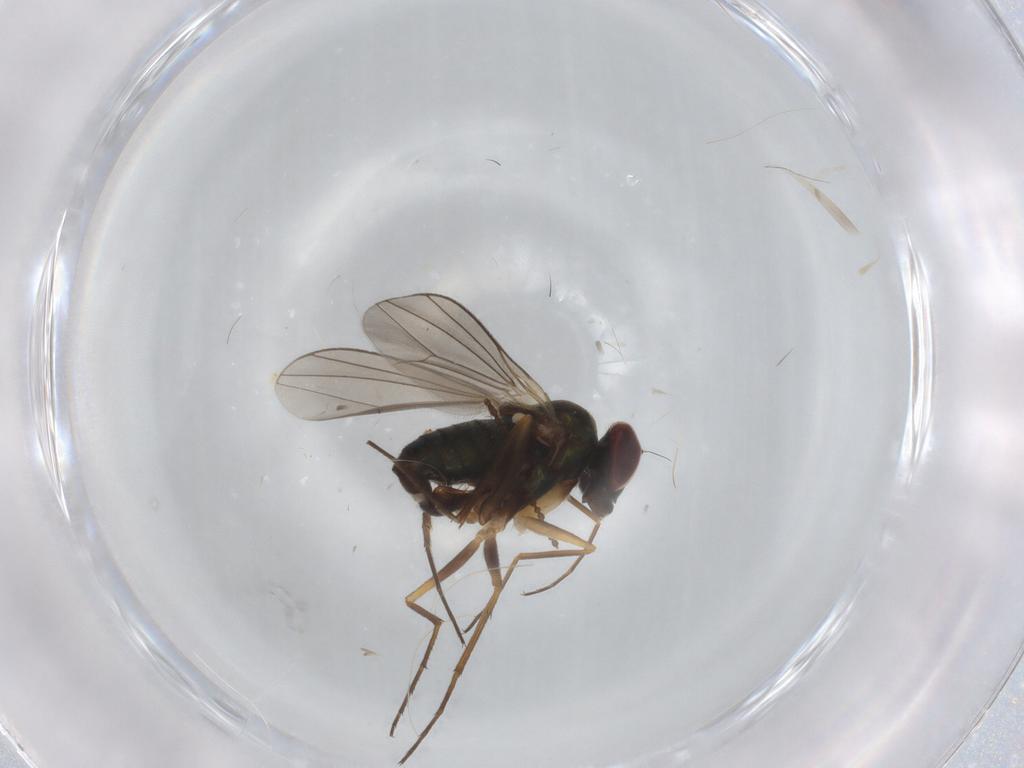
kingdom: Animalia
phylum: Arthropoda
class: Insecta
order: Diptera
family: Dolichopodidae
